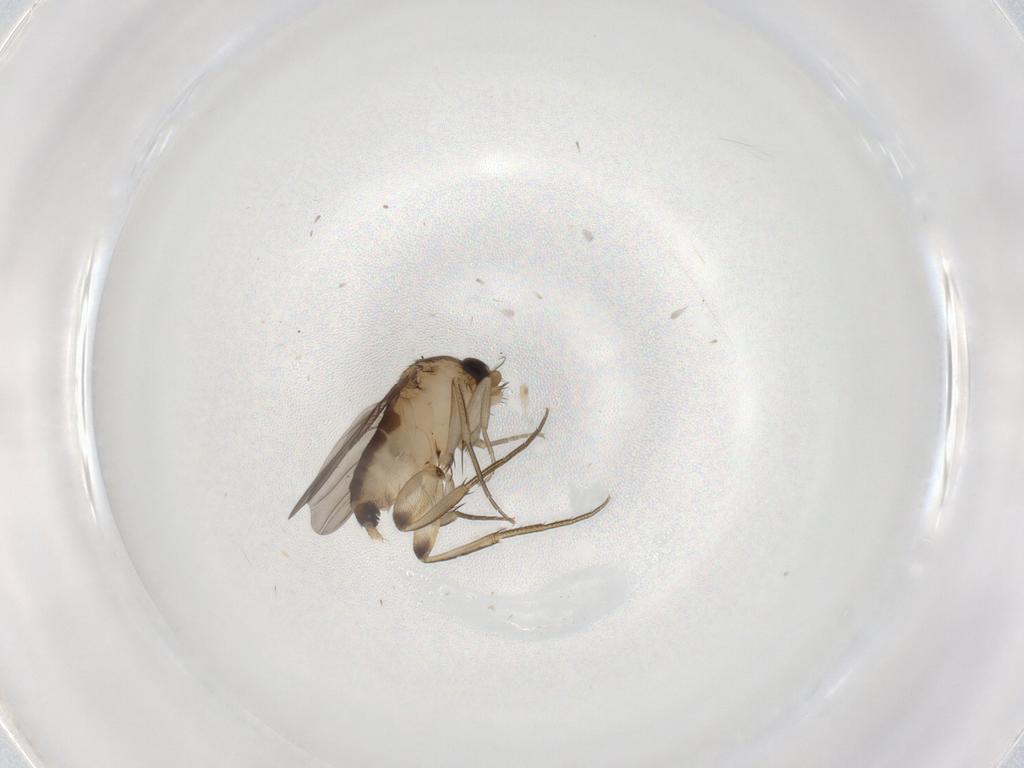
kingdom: Animalia
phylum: Arthropoda
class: Insecta
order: Diptera
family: Phoridae
